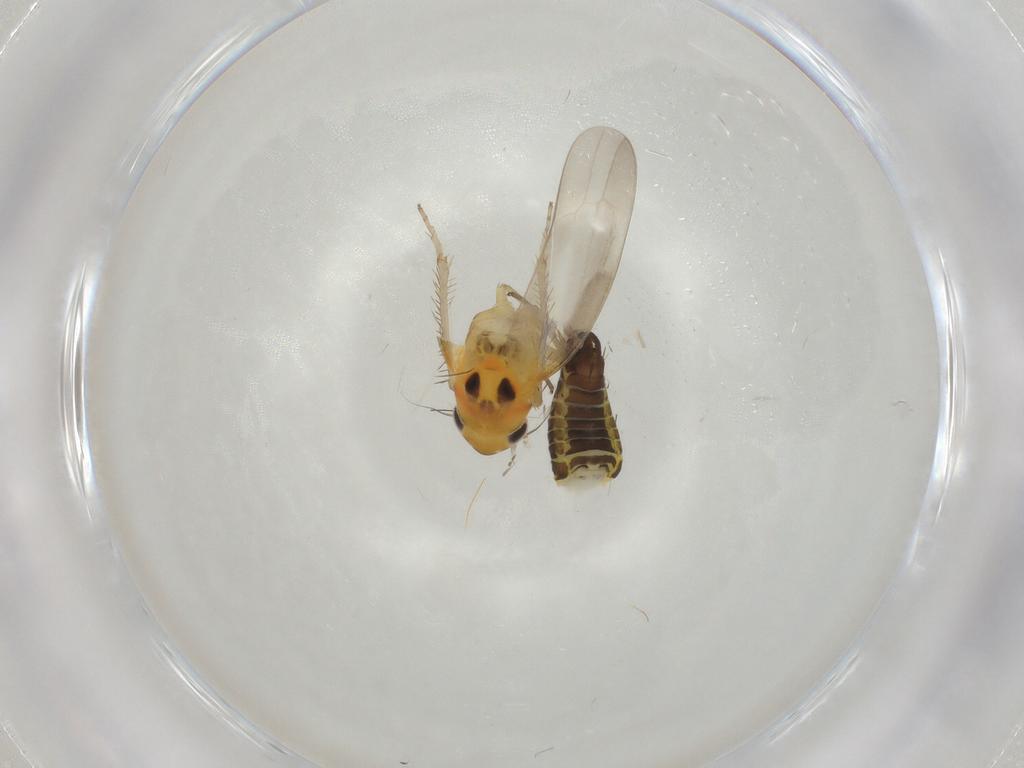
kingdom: Animalia
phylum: Arthropoda
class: Insecta
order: Hemiptera
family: Cicadellidae
